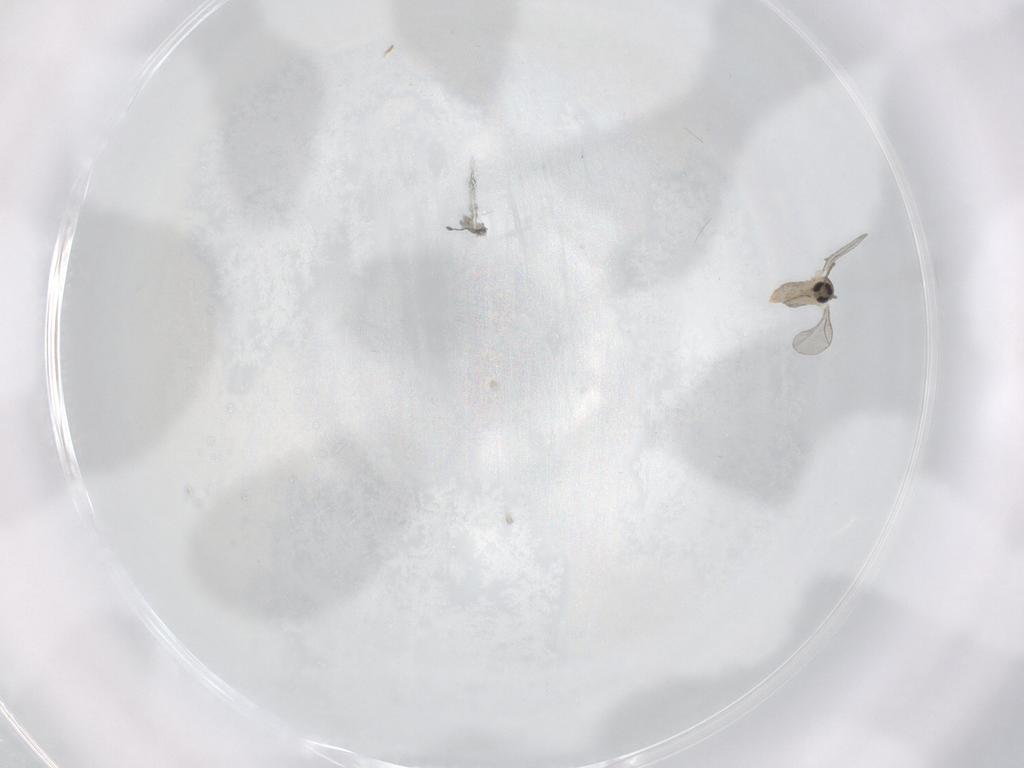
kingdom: Animalia
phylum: Arthropoda
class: Insecta
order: Diptera
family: Cecidomyiidae
